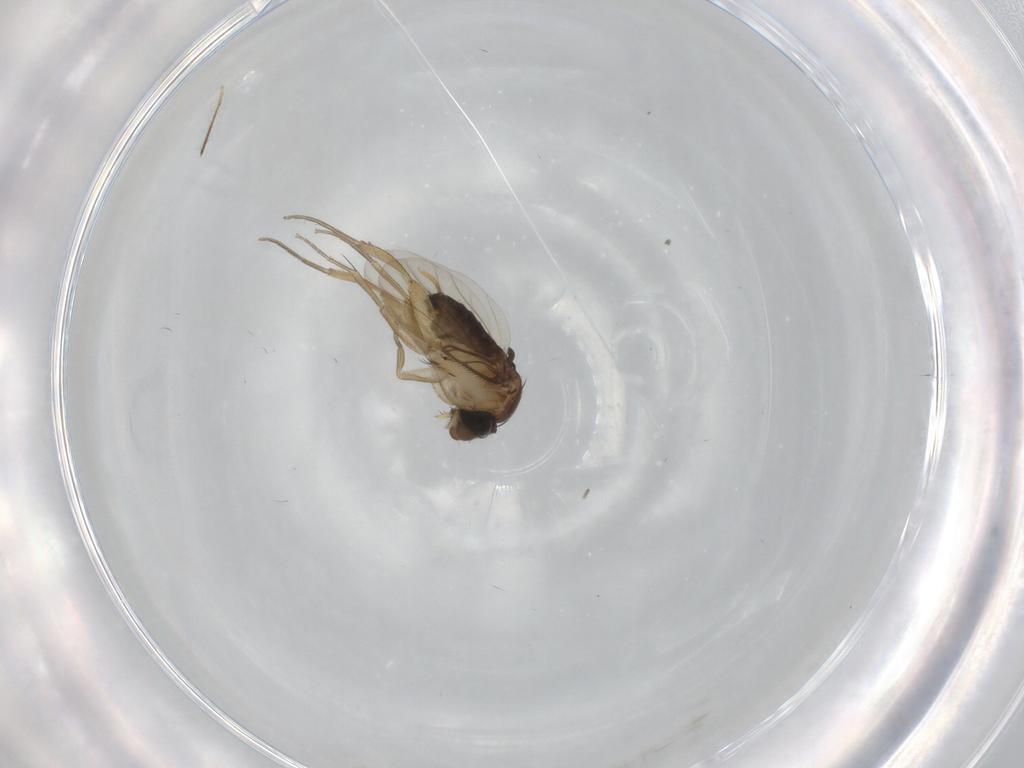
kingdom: Animalia
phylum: Arthropoda
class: Insecta
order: Diptera
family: Phoridae
